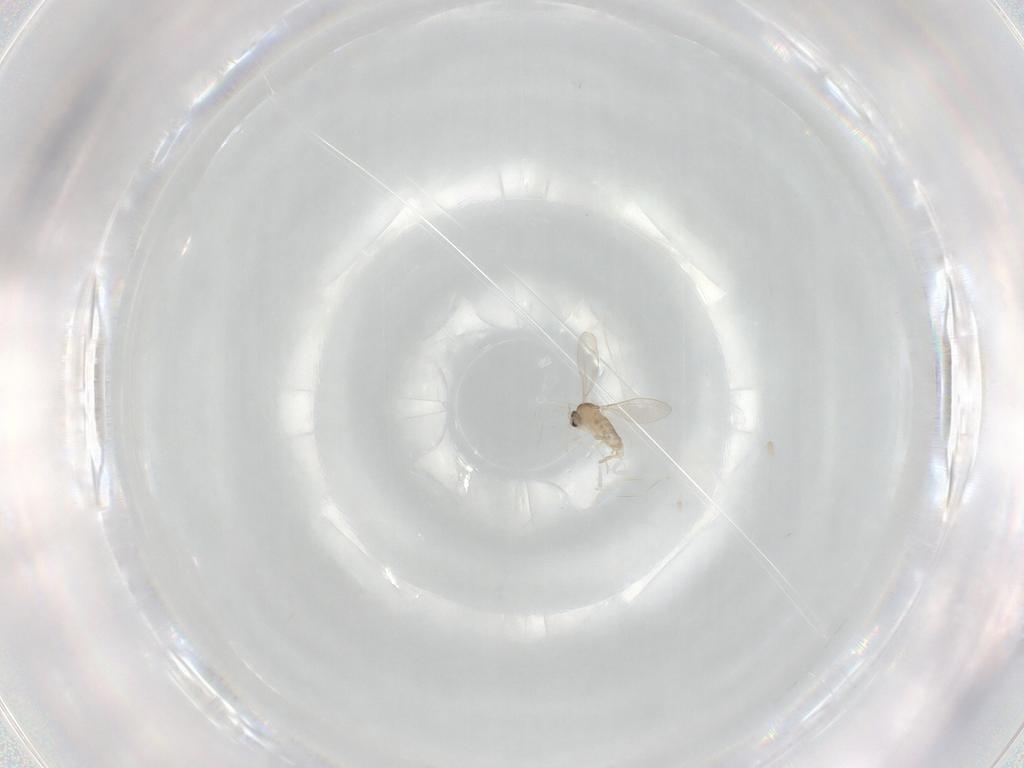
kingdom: Animalia
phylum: Arthropoda
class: Insecta
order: Diptera
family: Cecidomyiidae
